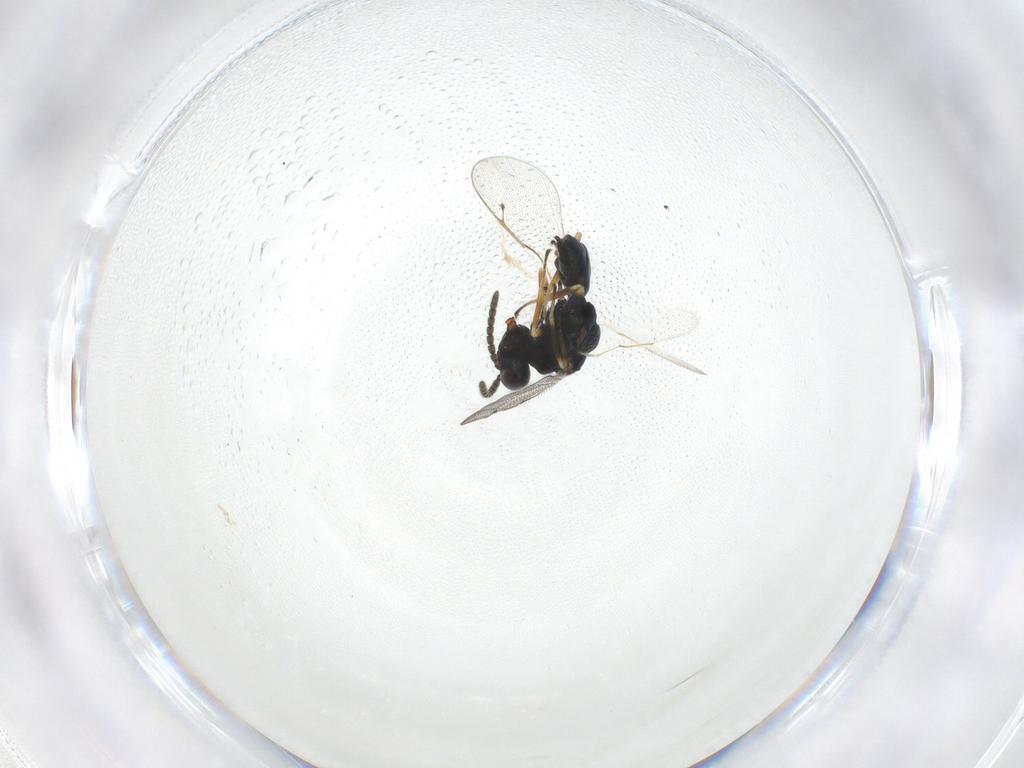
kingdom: Animalia
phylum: Arthropoda
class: Insecta
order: Hymenoptera
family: Pteromalidae
